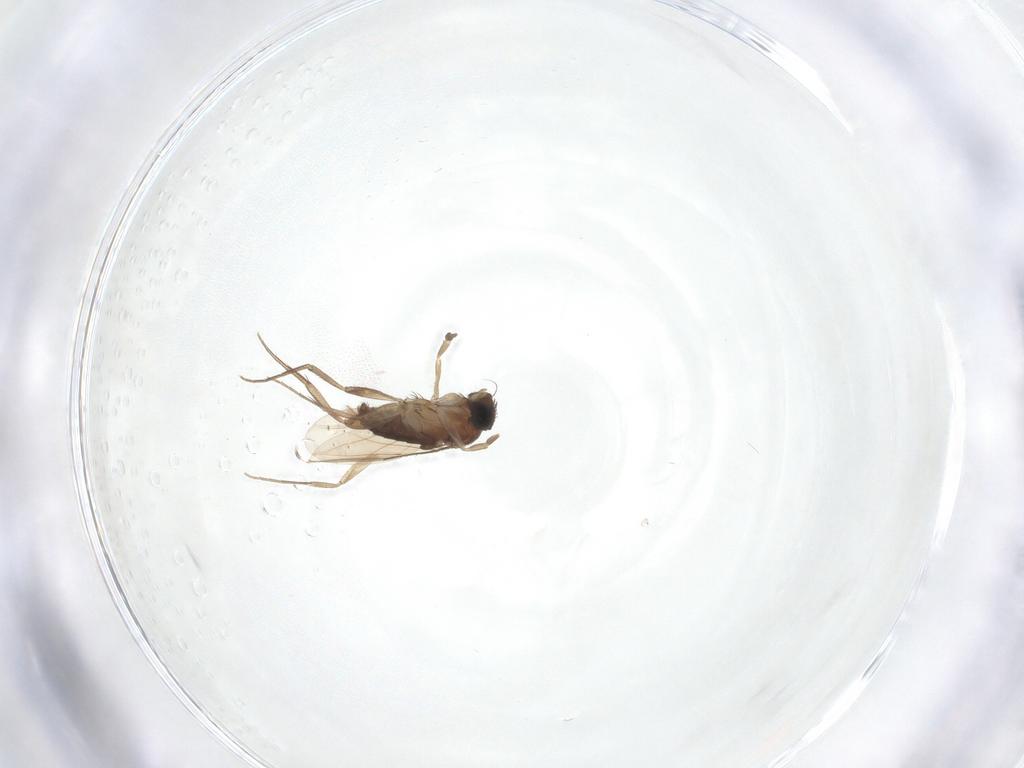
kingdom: Animalia
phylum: Arthropoda
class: Insecta
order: Diptera
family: Phoridae
